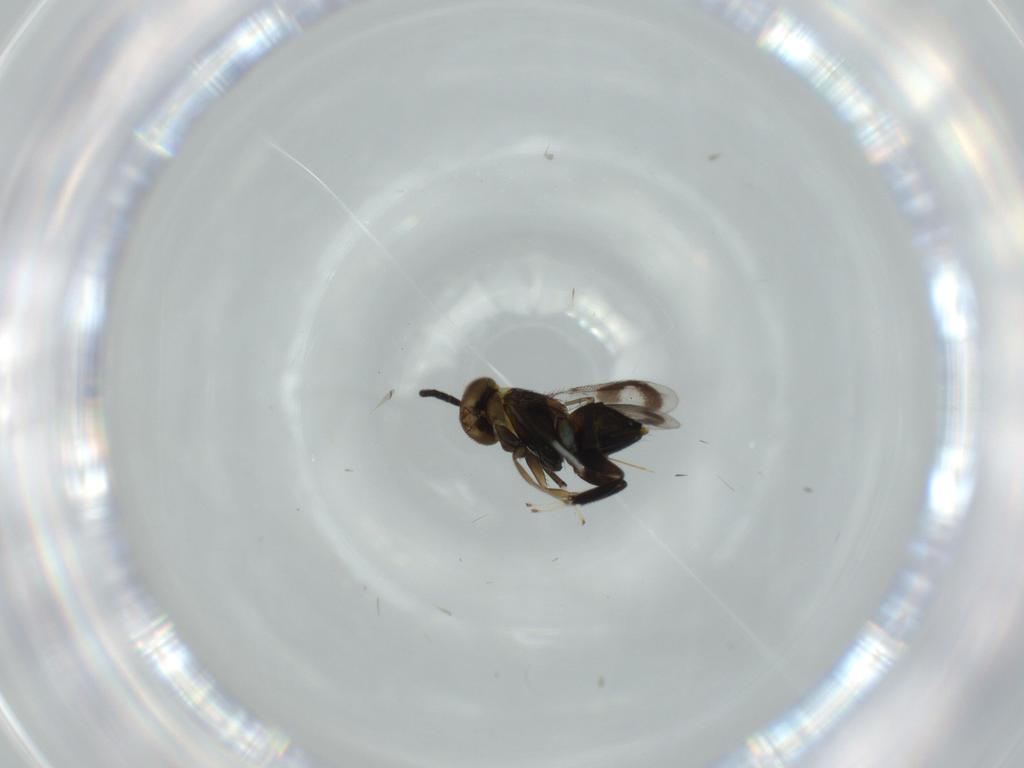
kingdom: Animalia
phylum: Arthropoda
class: Insecta
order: Hymenoptera
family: Aphelinidae
